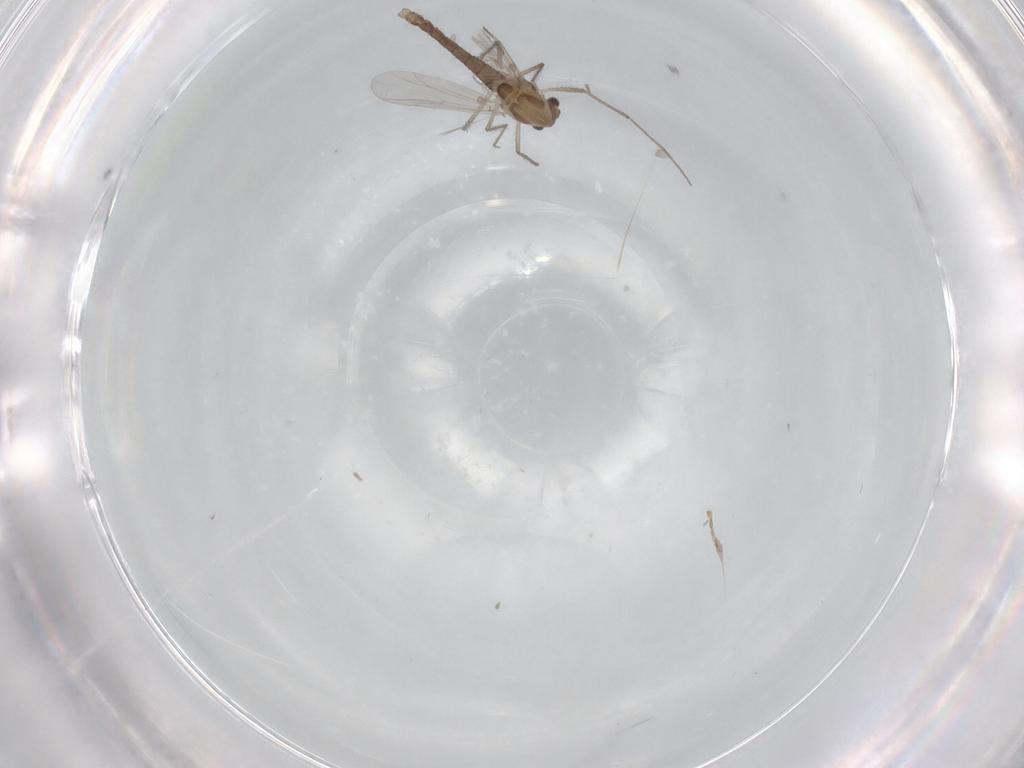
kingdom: Animalia
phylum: Arthropoda
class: Insecta
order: Diptera
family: Chironomidae
